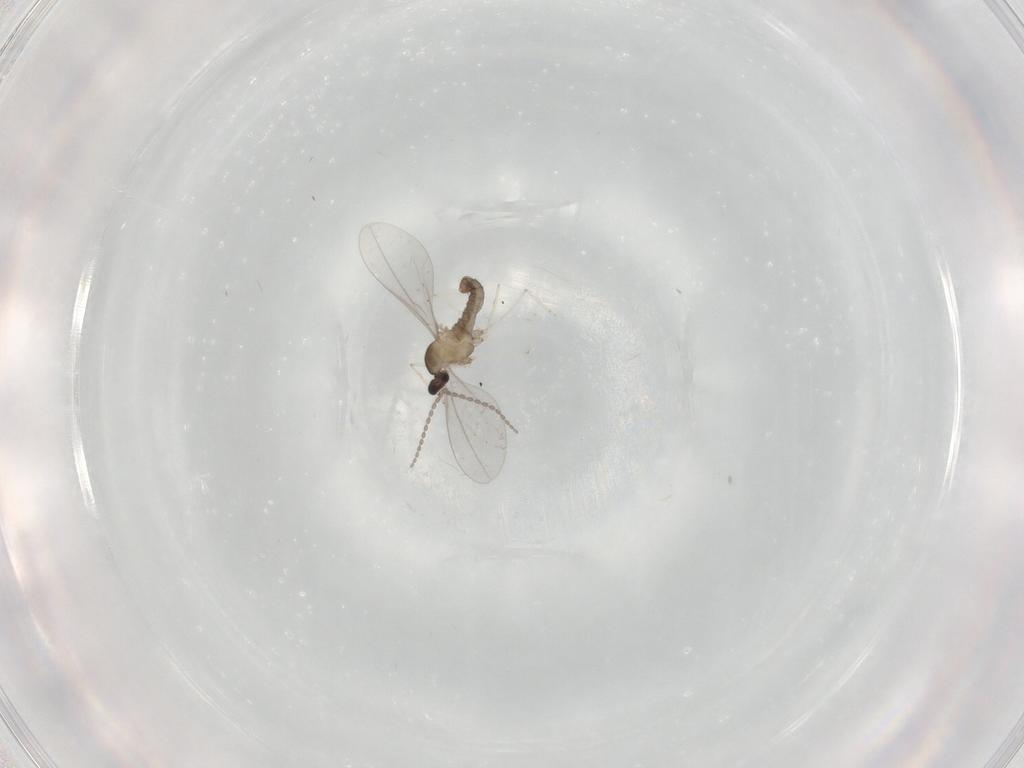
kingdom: Animalia
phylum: Arthropoda
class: Insecta
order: Diptera
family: Cecidomyiidae
